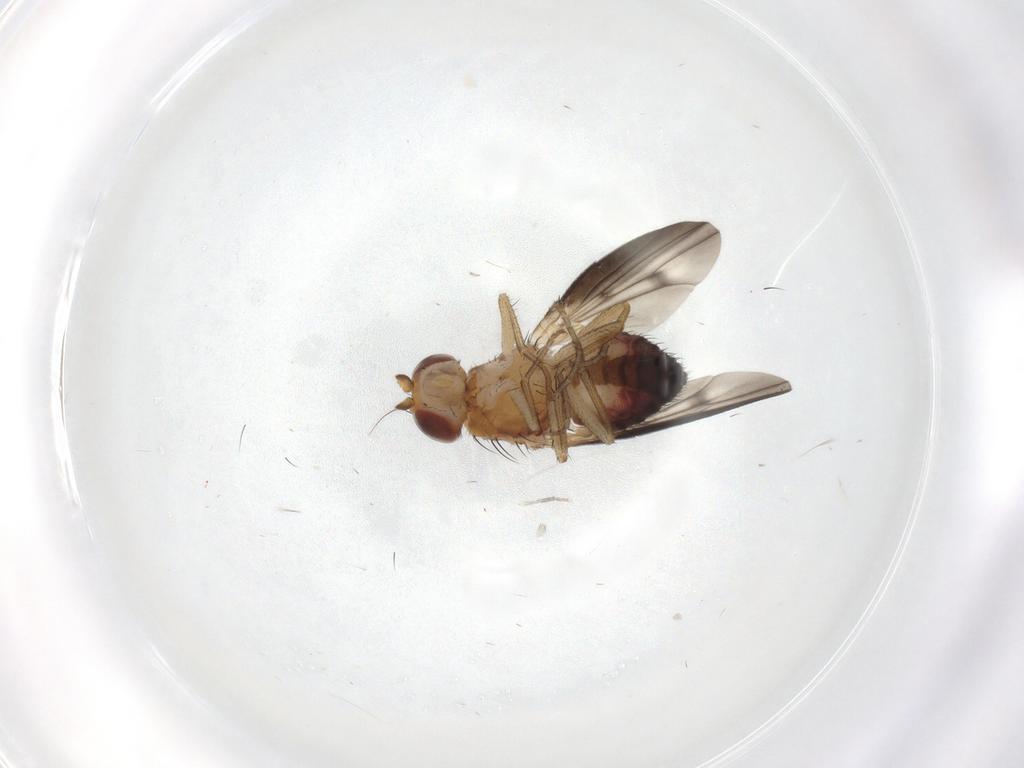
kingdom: Animalia
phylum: Arthropoda
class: Insecta
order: Diptera
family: Heleomyzidae
